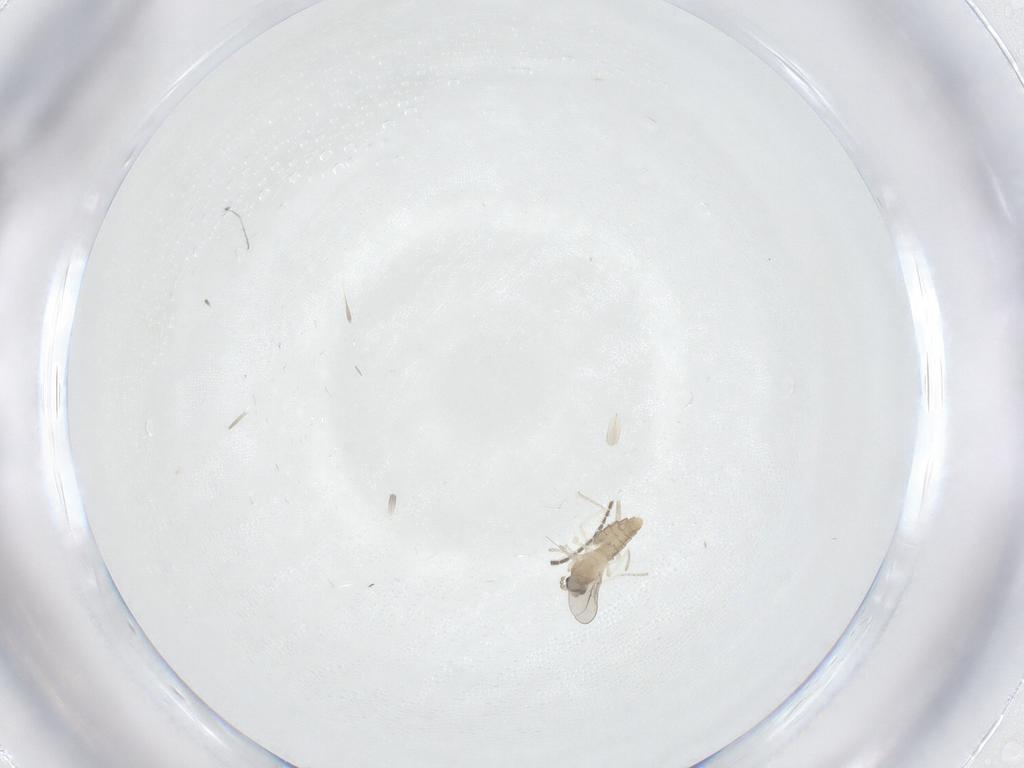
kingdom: Animalia
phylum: Arthropoda
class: Insecta
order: Diptera
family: Sciaridae
